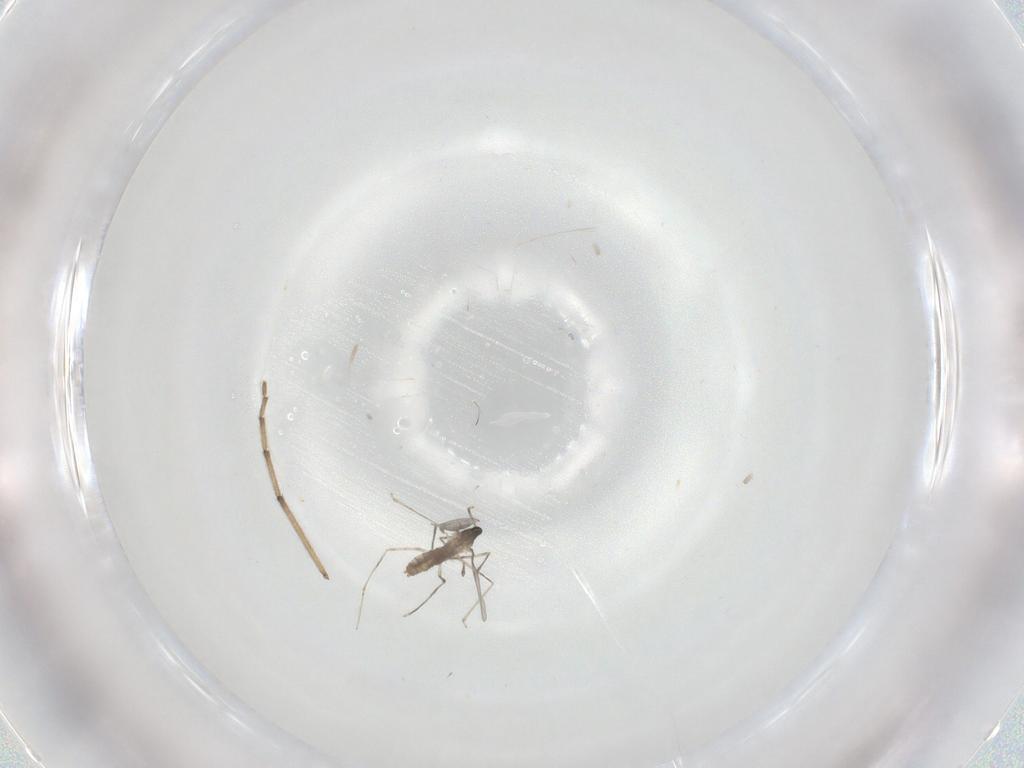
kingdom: Animalia
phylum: Arthropoda
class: Insecta
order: Diptera
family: Cecidomyiidae
